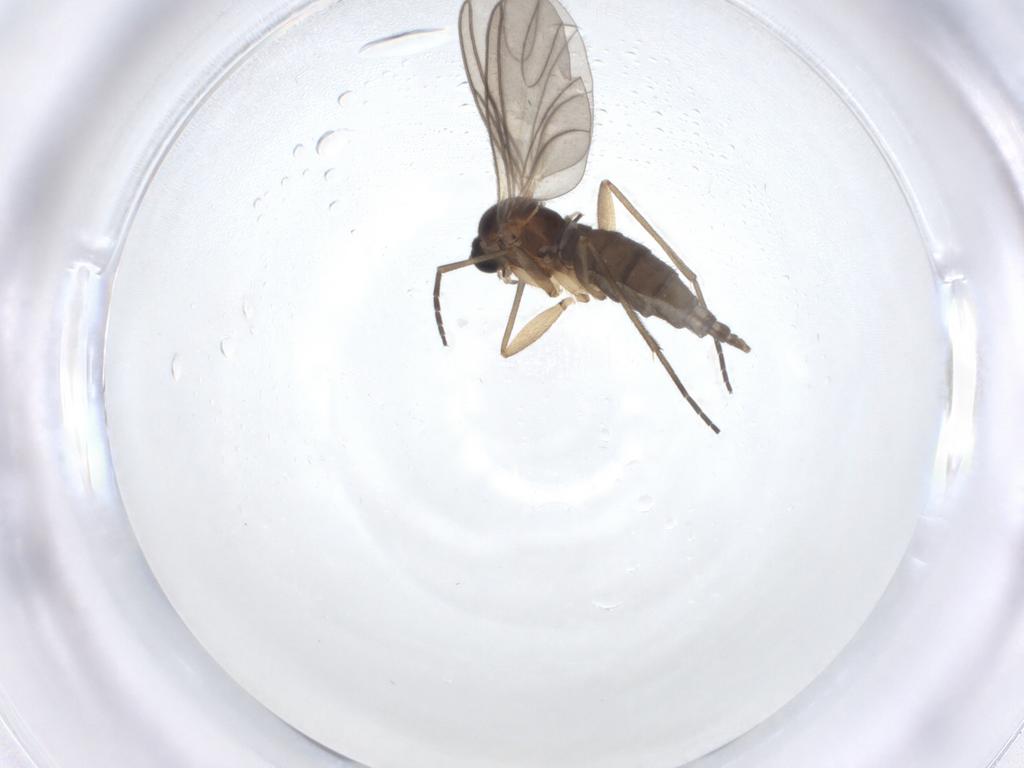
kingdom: Animalia
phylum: Arthropoda
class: Insecta
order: Diptera
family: Sciaridae
